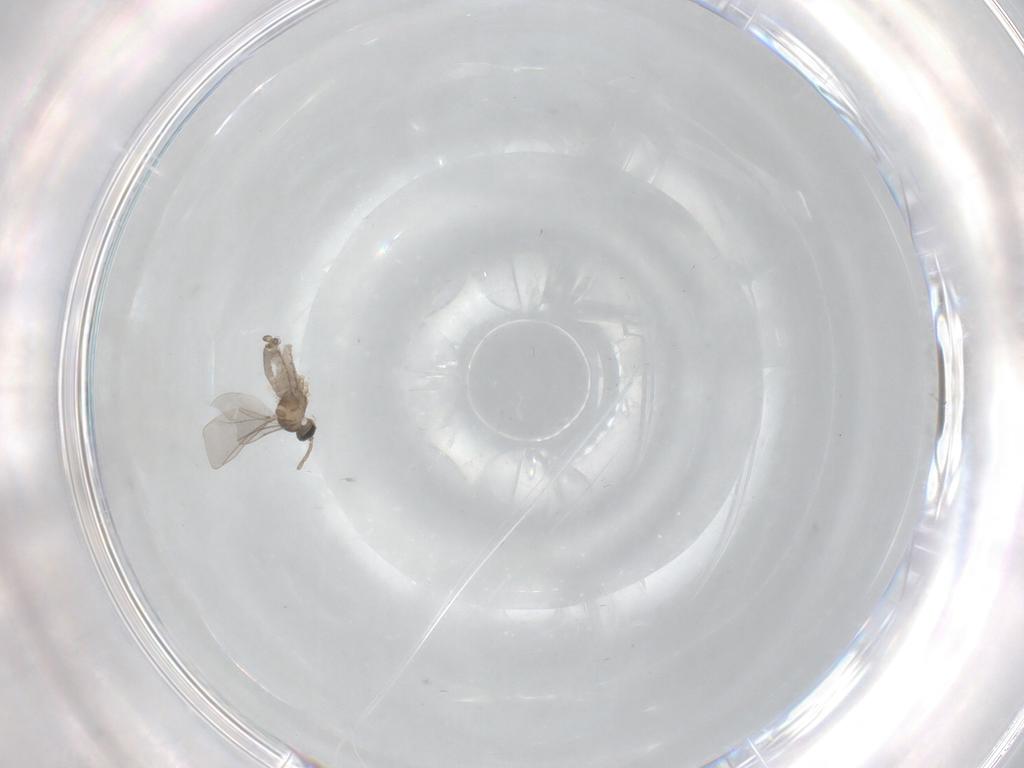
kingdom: Animalia
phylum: Arthropoda
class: Insecta
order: Diptera
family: Cecidomyiidae
